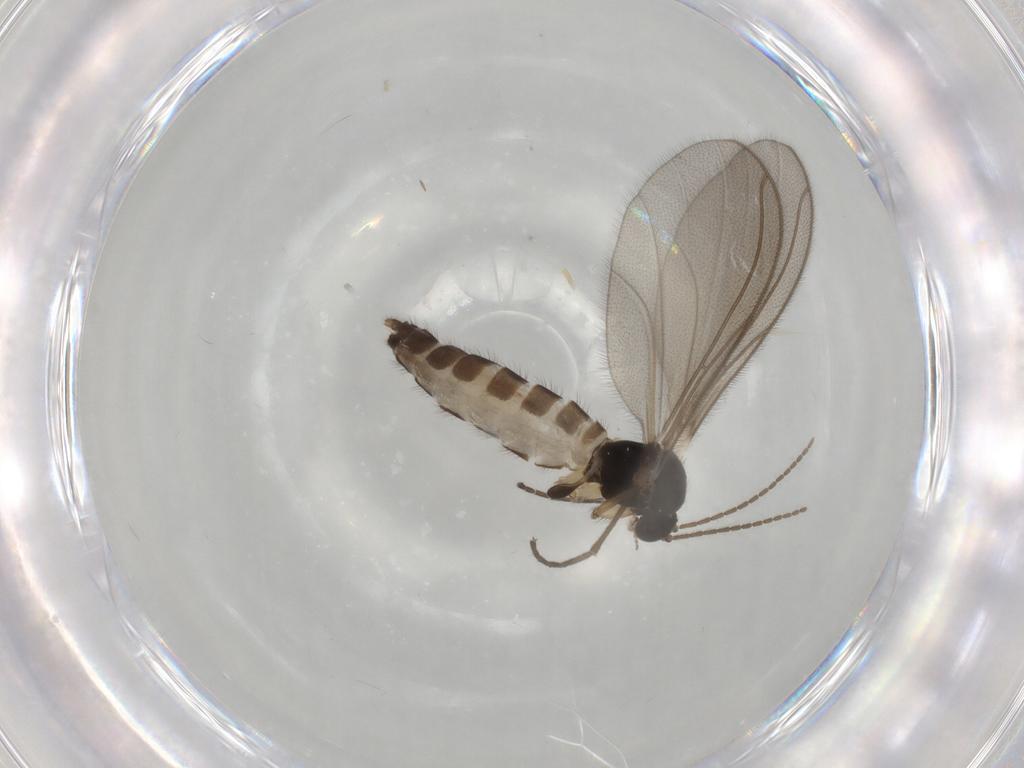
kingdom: Animalia
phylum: Arthropoda
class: Insecta
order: Diptera
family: Mycetophilidae
